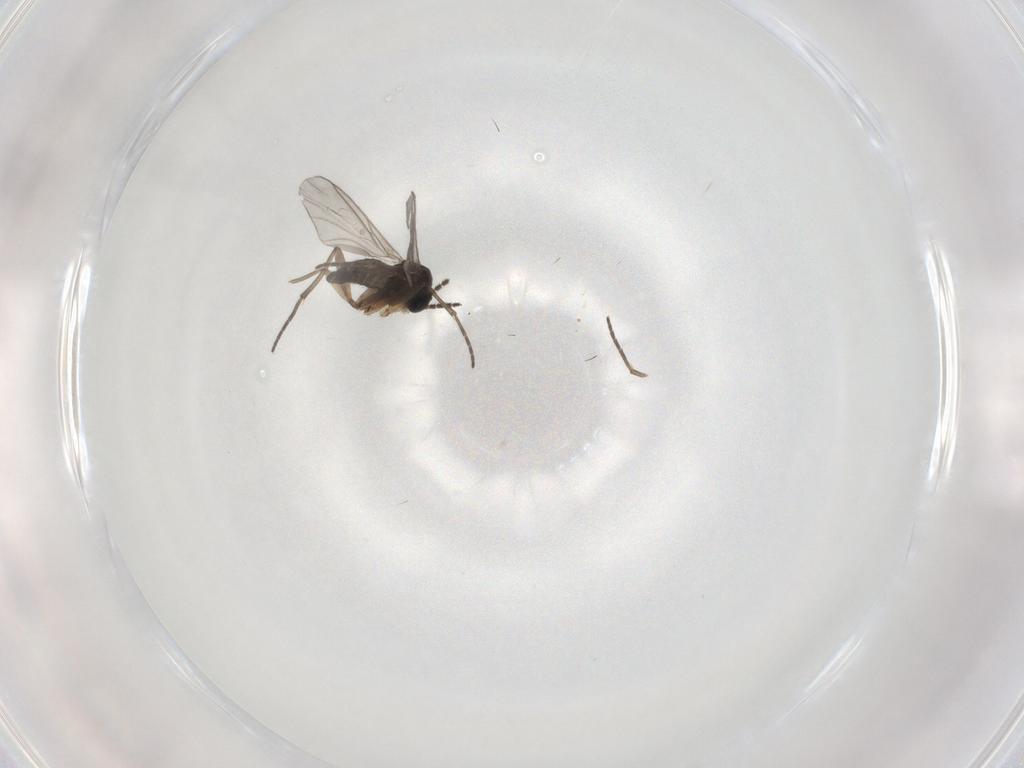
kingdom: Animalia
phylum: Arthropoda
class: Insecta
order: Diptera
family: Sciaridae
